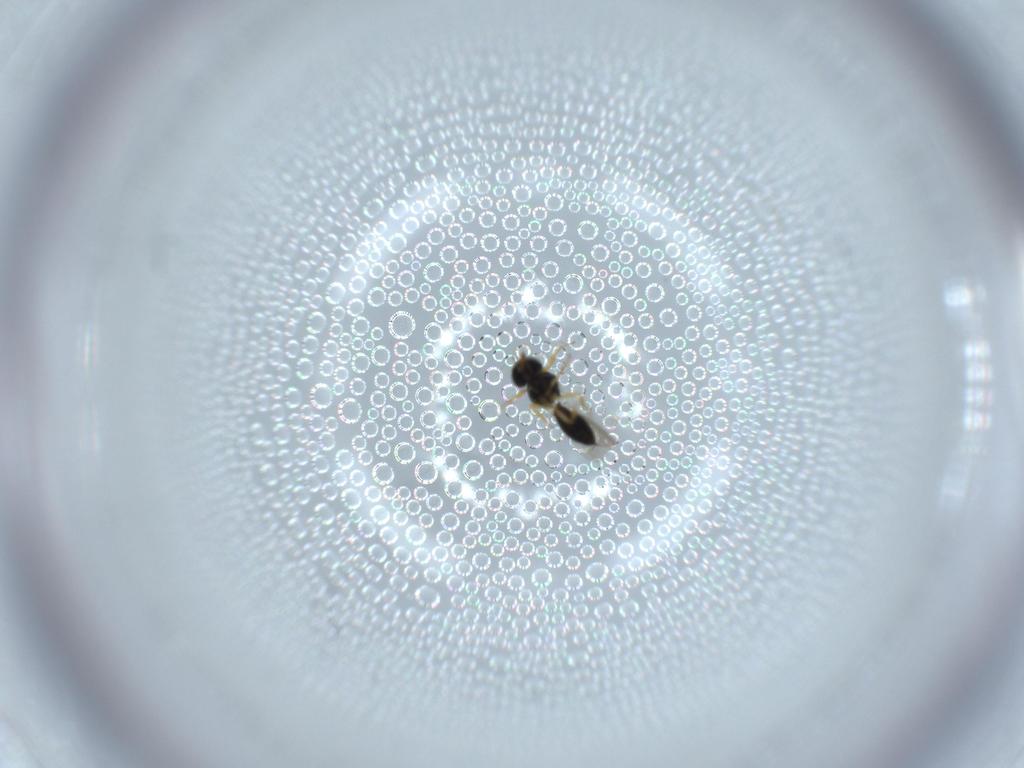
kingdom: Animalia
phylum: Arthropoda
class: Insecta
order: Hymenoptera
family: Scelionidae
